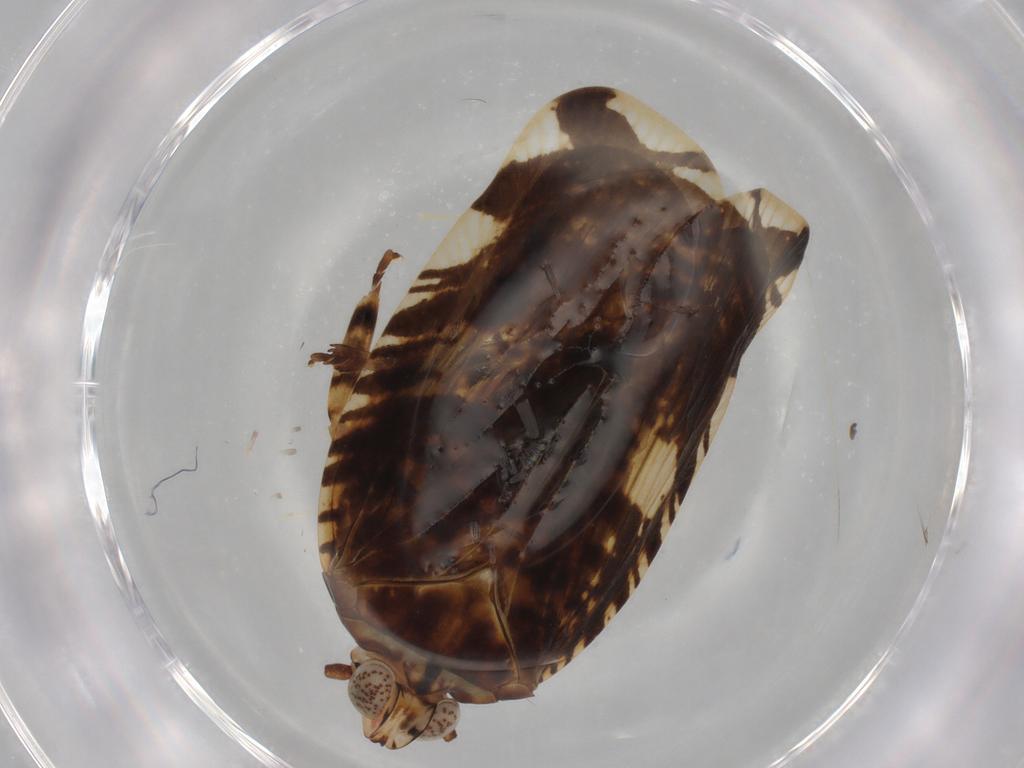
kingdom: Animalia
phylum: Arthropoda
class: Insecta
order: Hemiptera
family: Lophopidae
